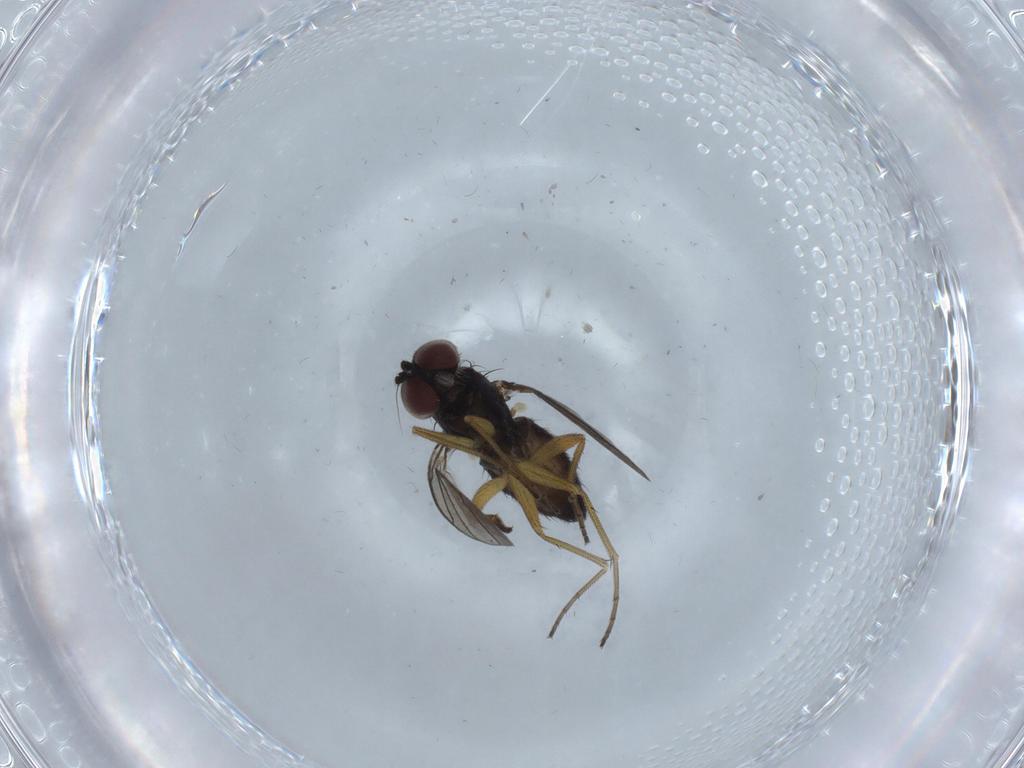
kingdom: Animalia
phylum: Arthropoda
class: Insecta
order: Diptera
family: Dolichopodidae
